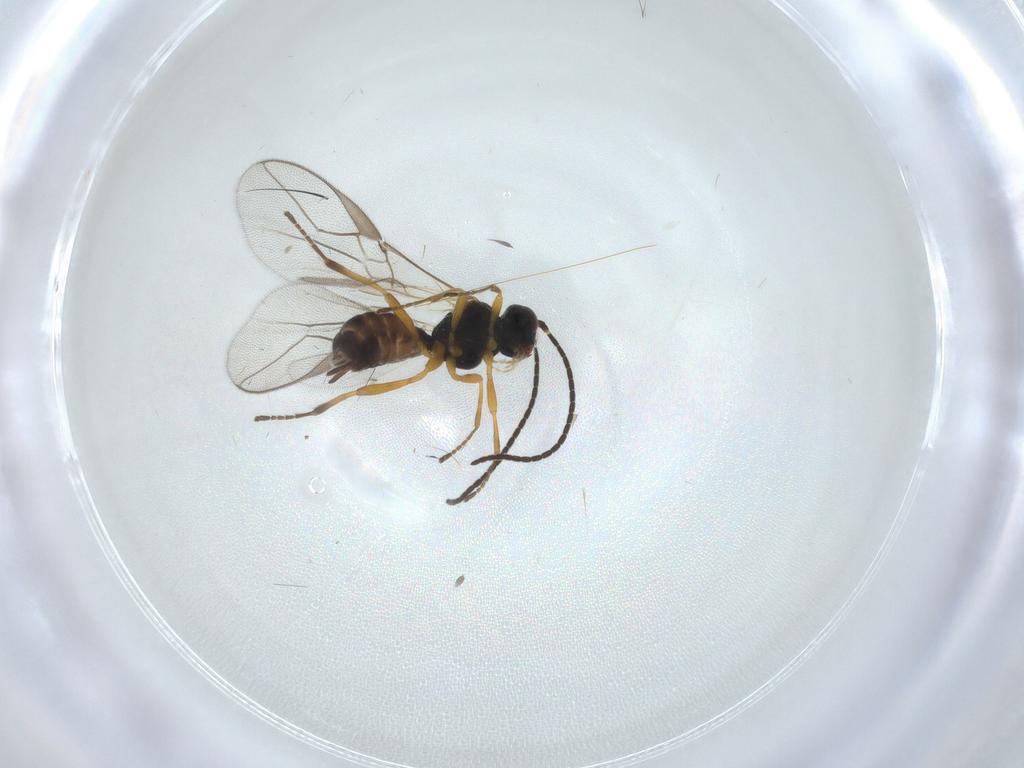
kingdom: Animalia
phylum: Arthropoda
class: Insecta
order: Hymenoptera
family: Braconidae
